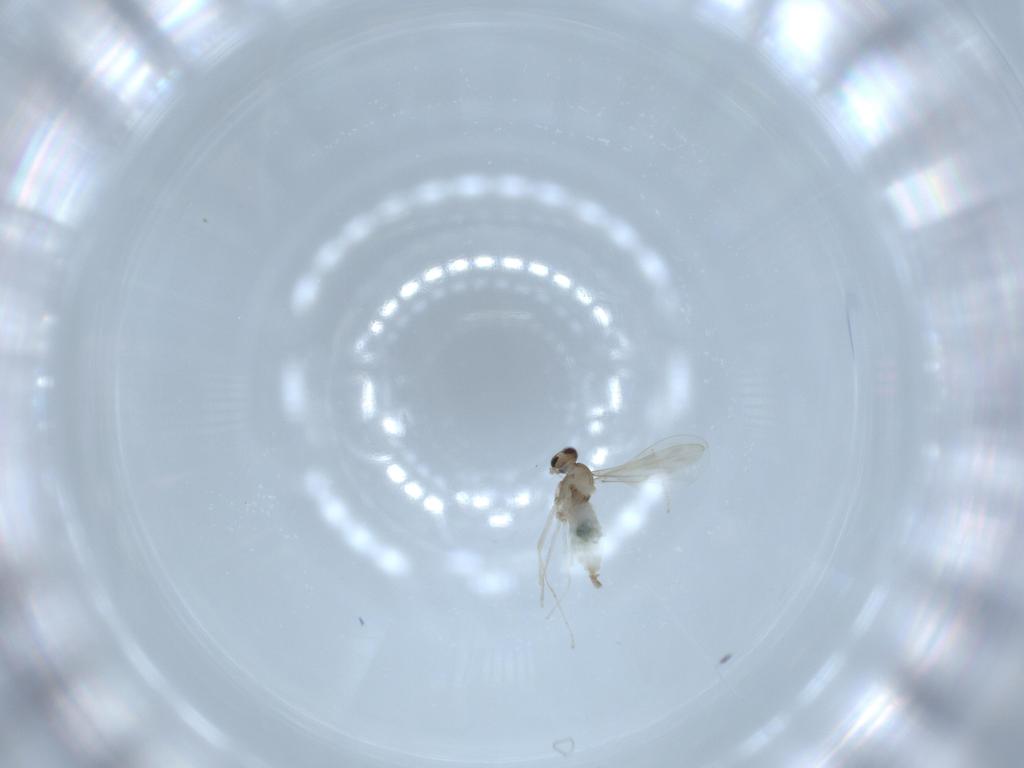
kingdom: Animalia
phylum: Arthropoda
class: Insecta
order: Diptera
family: Cecidomyiidae
